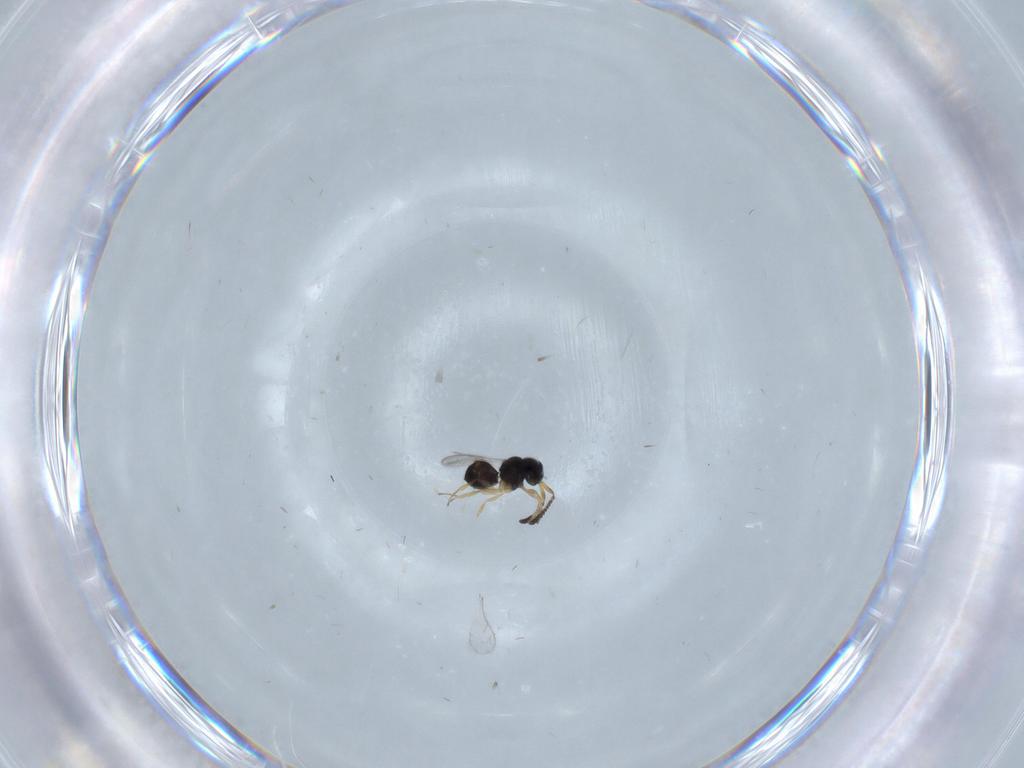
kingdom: Animalia
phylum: Arthropoda
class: Insecta
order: Hymenoptera
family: Scelionidae
